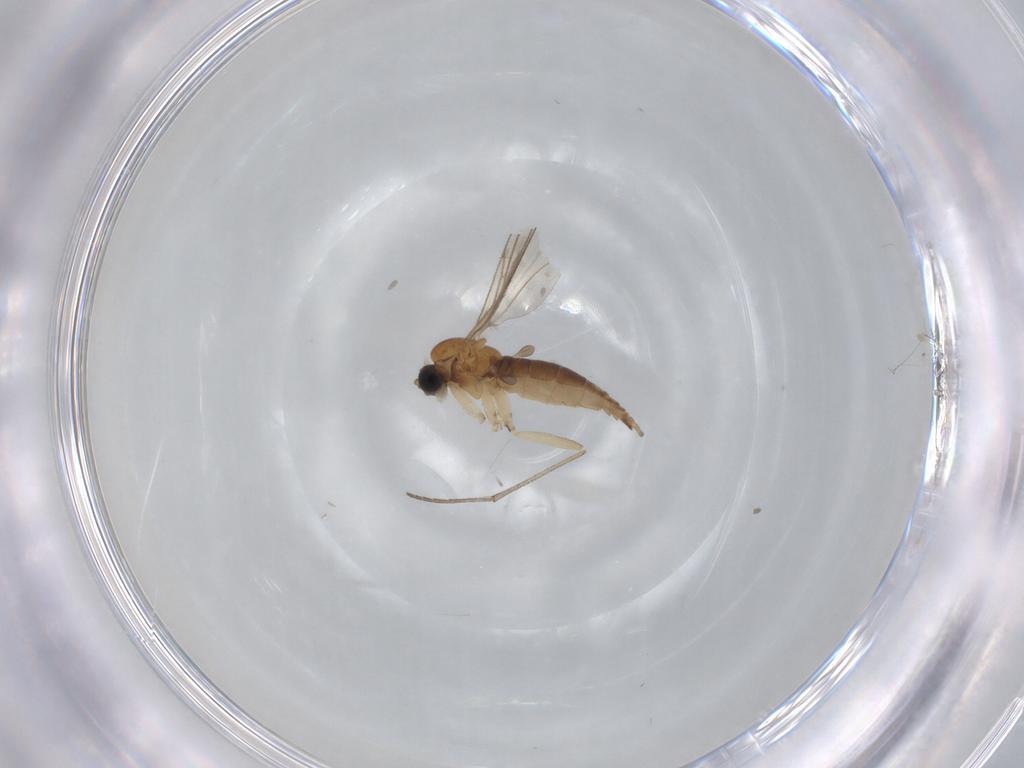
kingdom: Animalia
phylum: Arthropoda
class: Insecta
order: Diptera
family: Sciaridae
